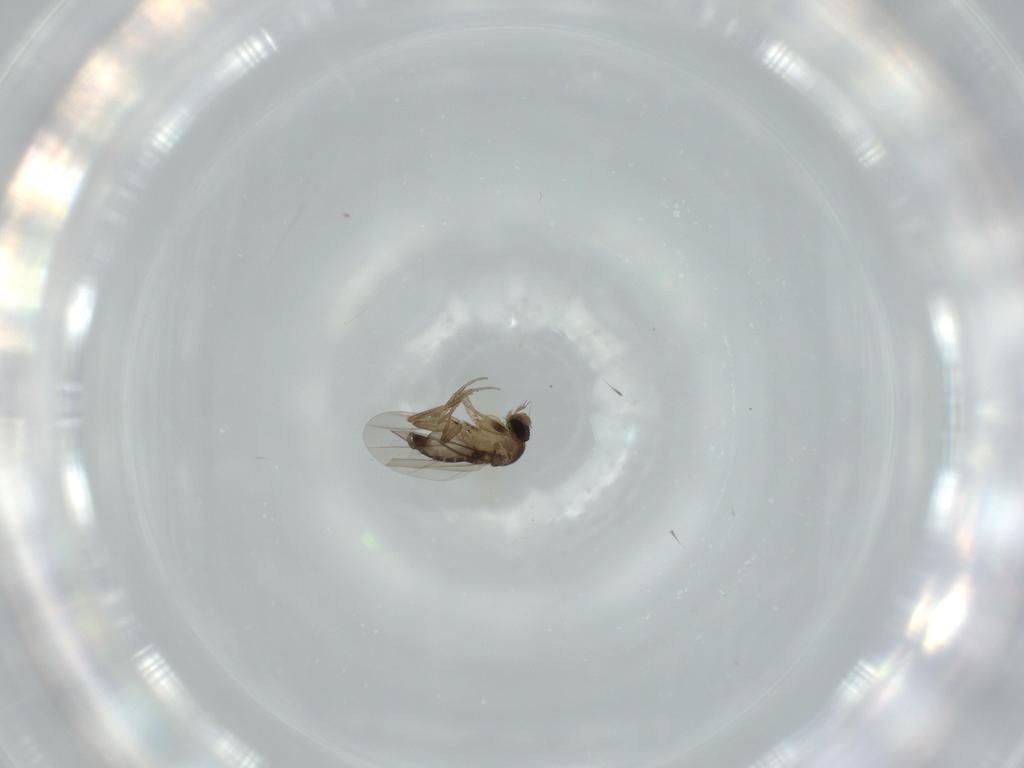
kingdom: Animalia
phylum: Arthropoda
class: Insecta
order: Diptera
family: Phoridae
